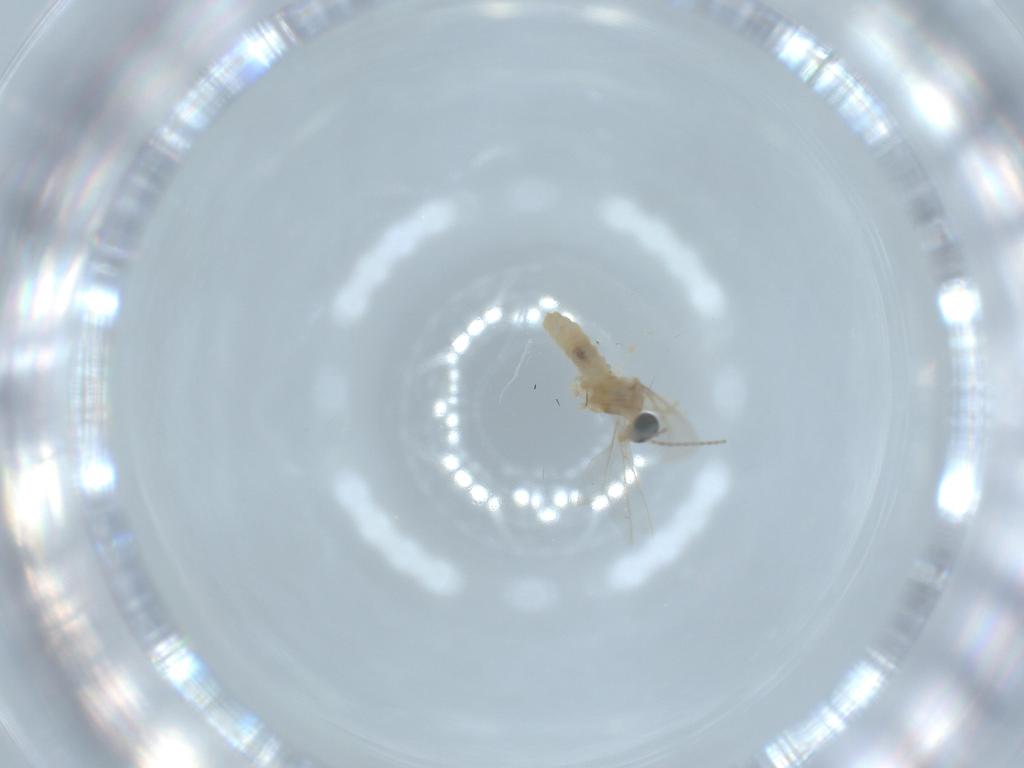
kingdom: Animalia
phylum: Arthropoda
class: Insecta
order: Diptera
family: Cecidomyiidae
